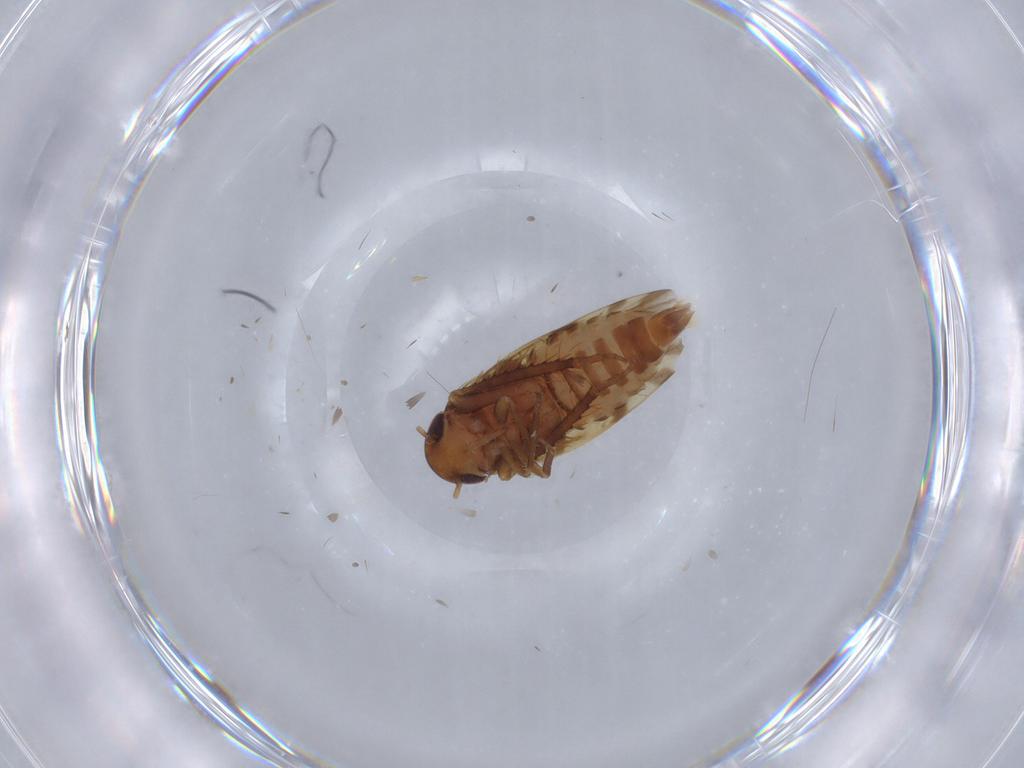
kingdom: Animalia
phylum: Arthropoda
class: Insecta
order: Hemiptera
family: Cicadellidae
